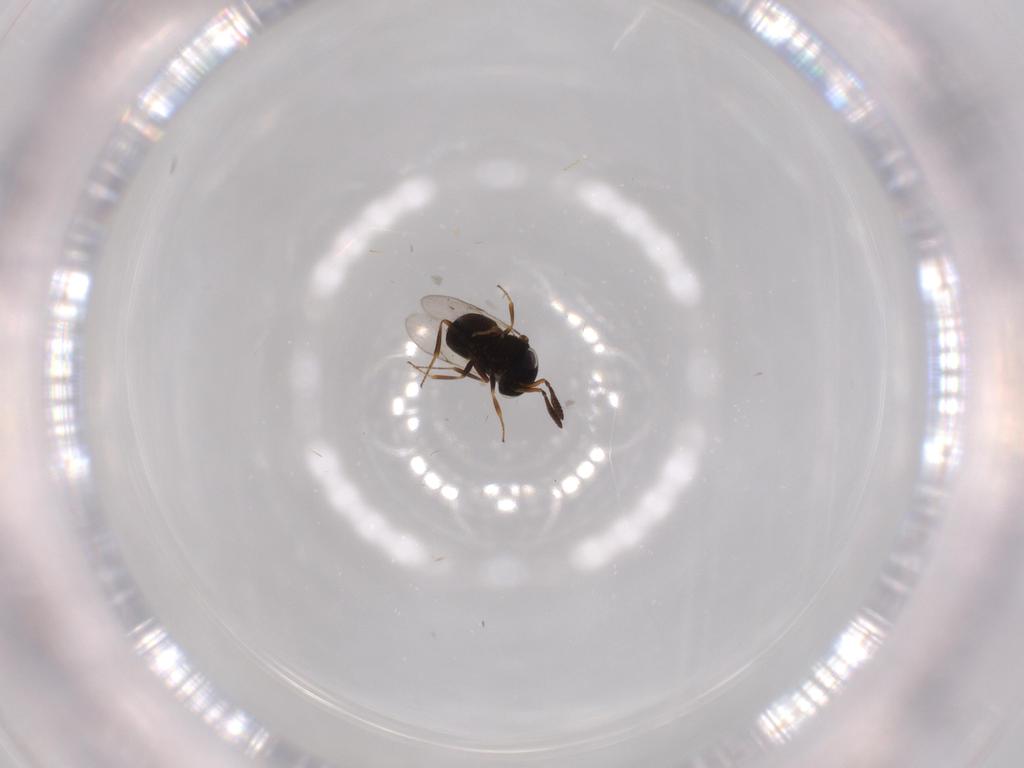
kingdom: Animalia
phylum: Arthropoda
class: Insecta
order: Hymenoptera
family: Scelionidae
